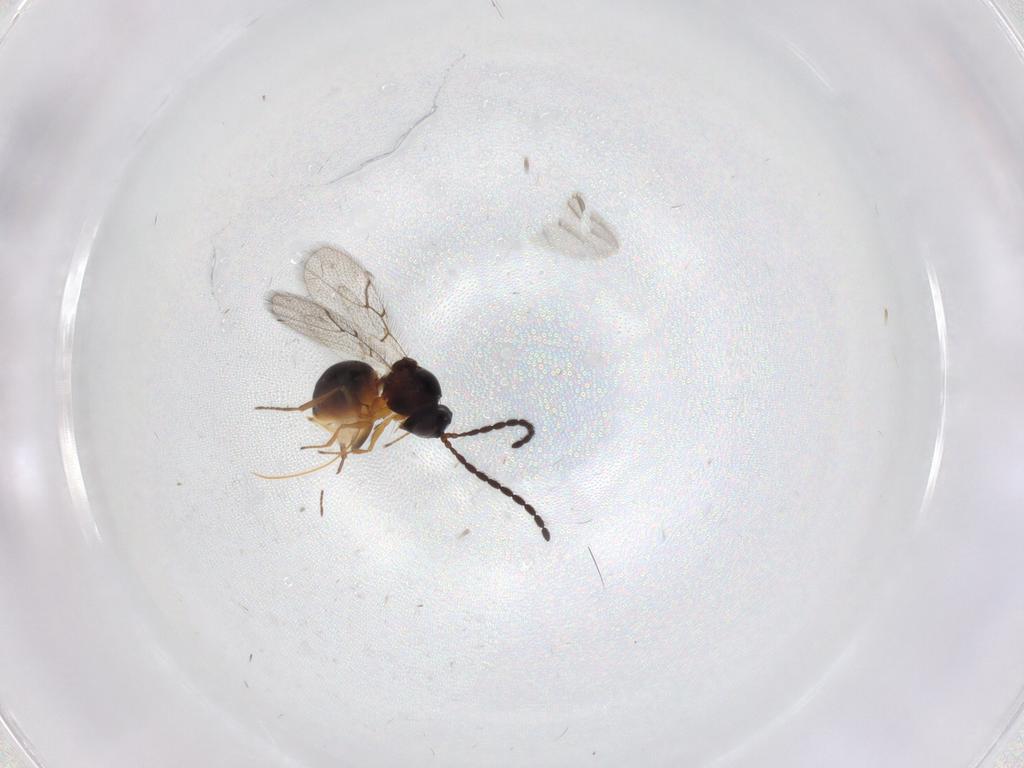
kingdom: Animalia
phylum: Arthropoda
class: Insecta
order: Hymenoptera
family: Figitidae
